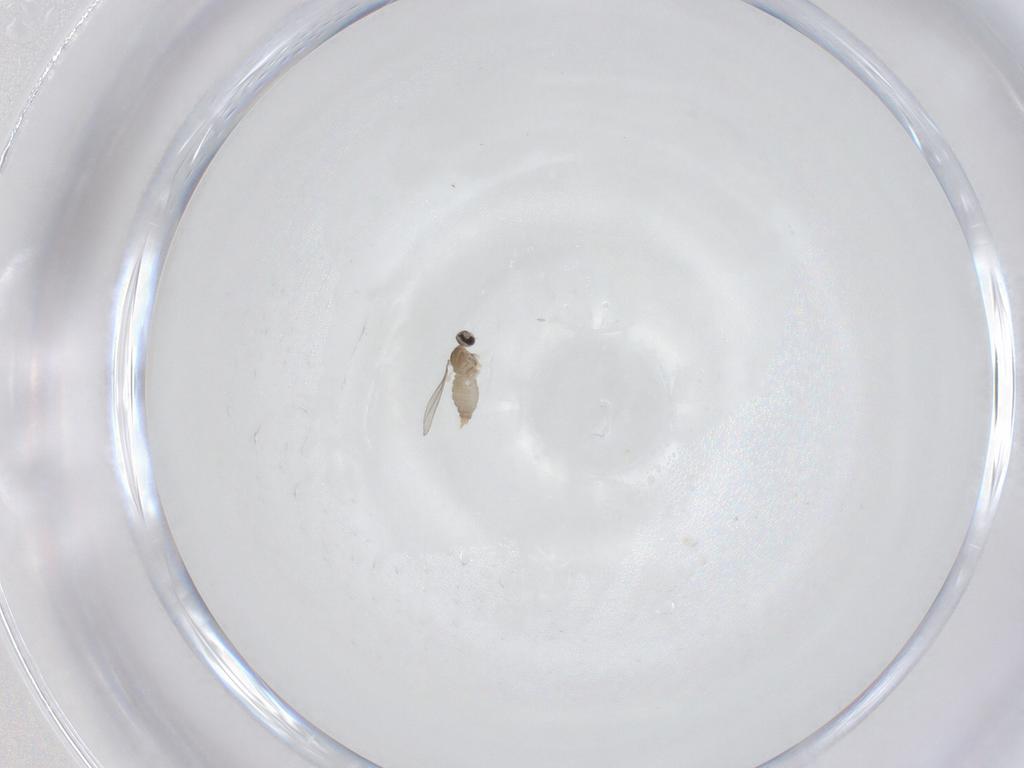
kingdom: Animalia
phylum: Arthropoda
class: Insecta
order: Diptera
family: Cecidomyiidae
